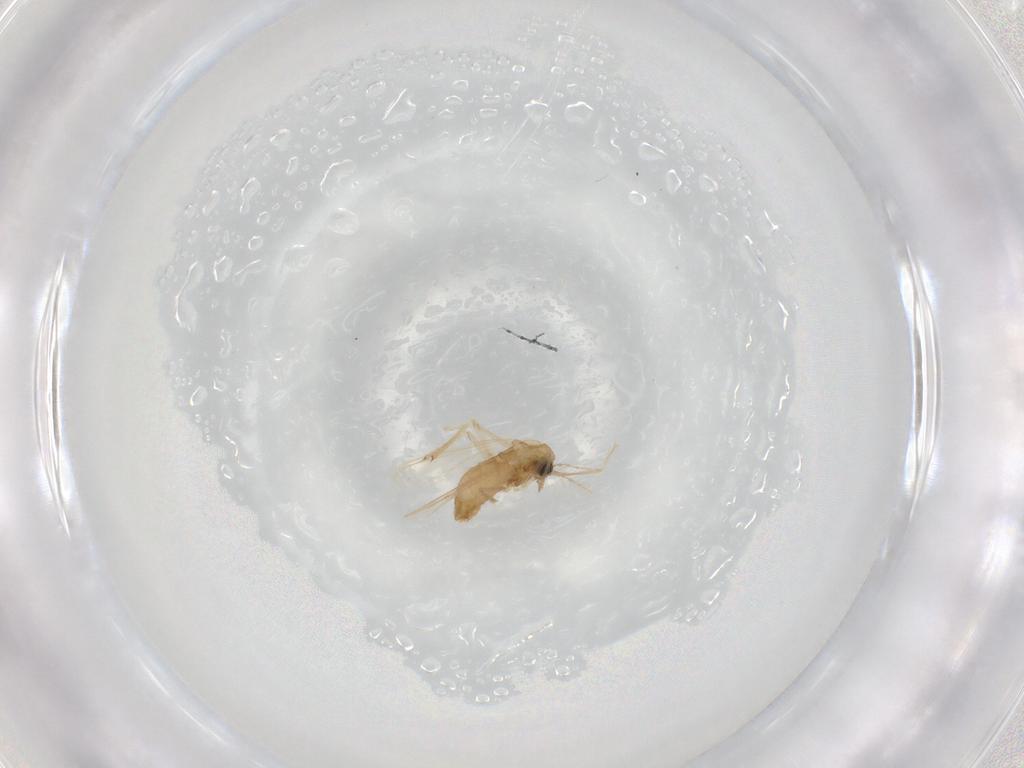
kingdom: Animalia
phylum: Arthropoda
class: Insecta
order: Diptera
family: Chironomidae
